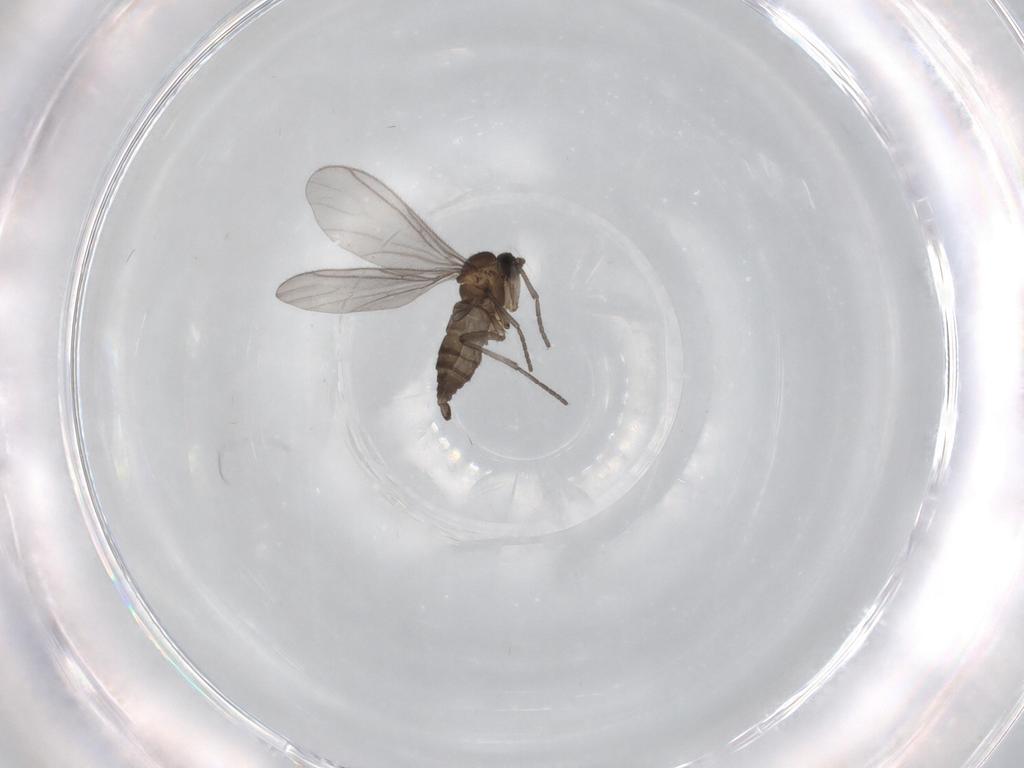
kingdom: Animalia
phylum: Arthropoda
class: Insecta
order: Diptera
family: Sciaridae
